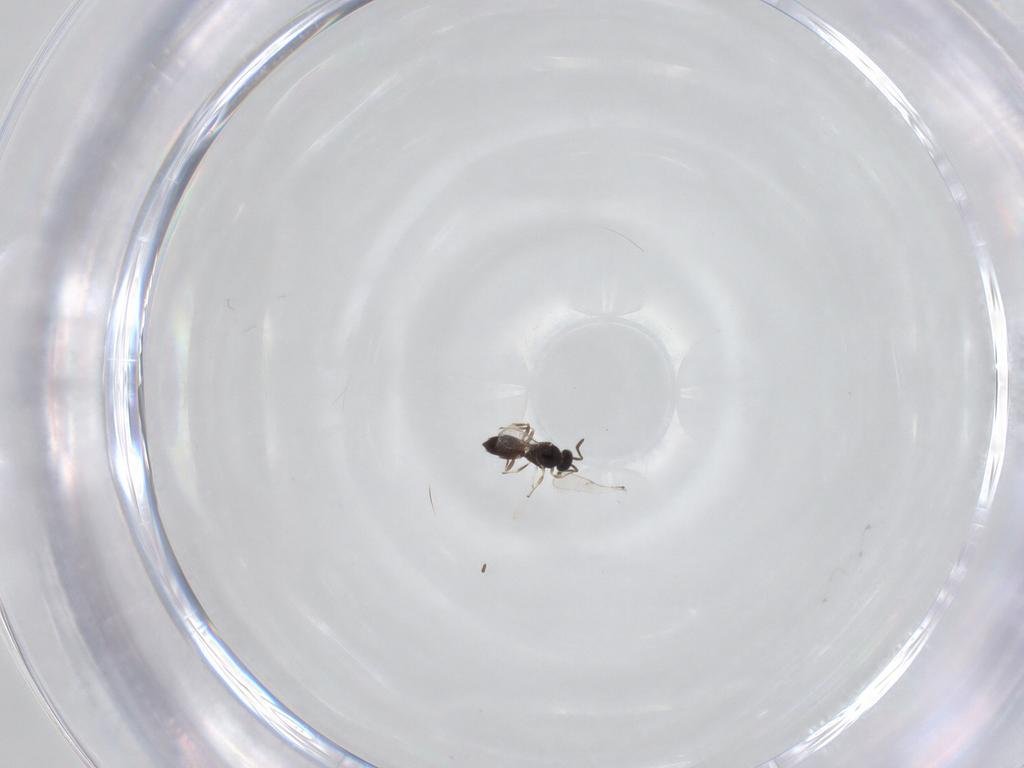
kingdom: Animalia
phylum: Arthropoda
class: Insecta
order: Hymenoptera
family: Scelionidae
